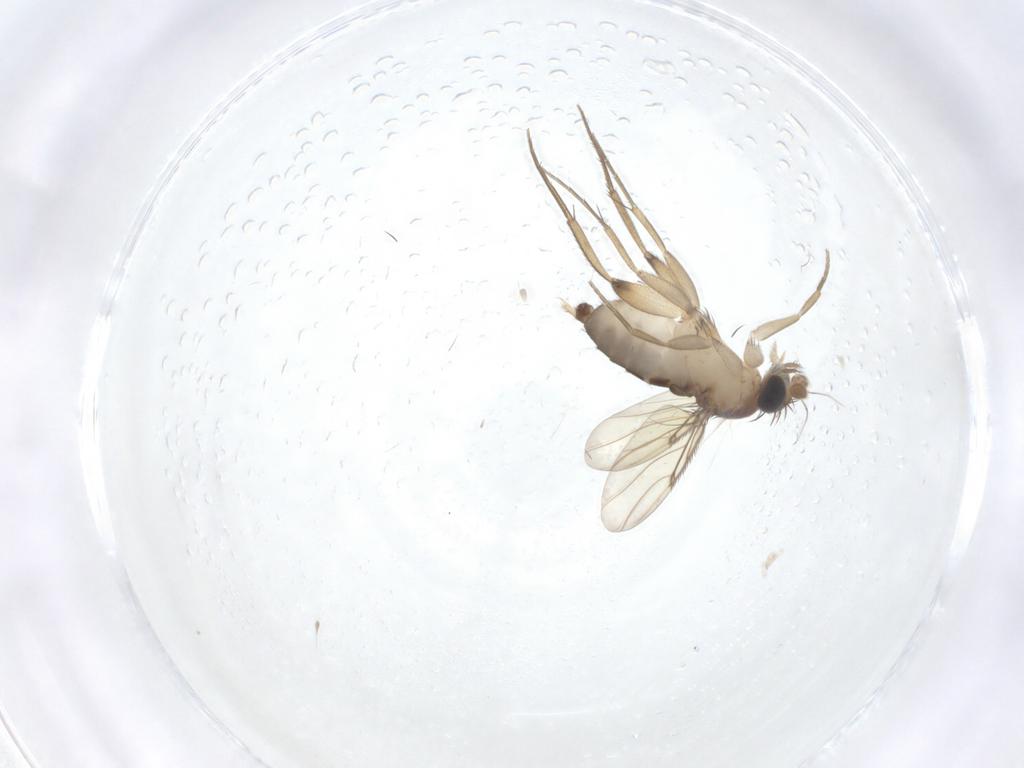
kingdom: Animalia
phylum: Arthropoda
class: Insecta
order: Diptera
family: Phoridae
